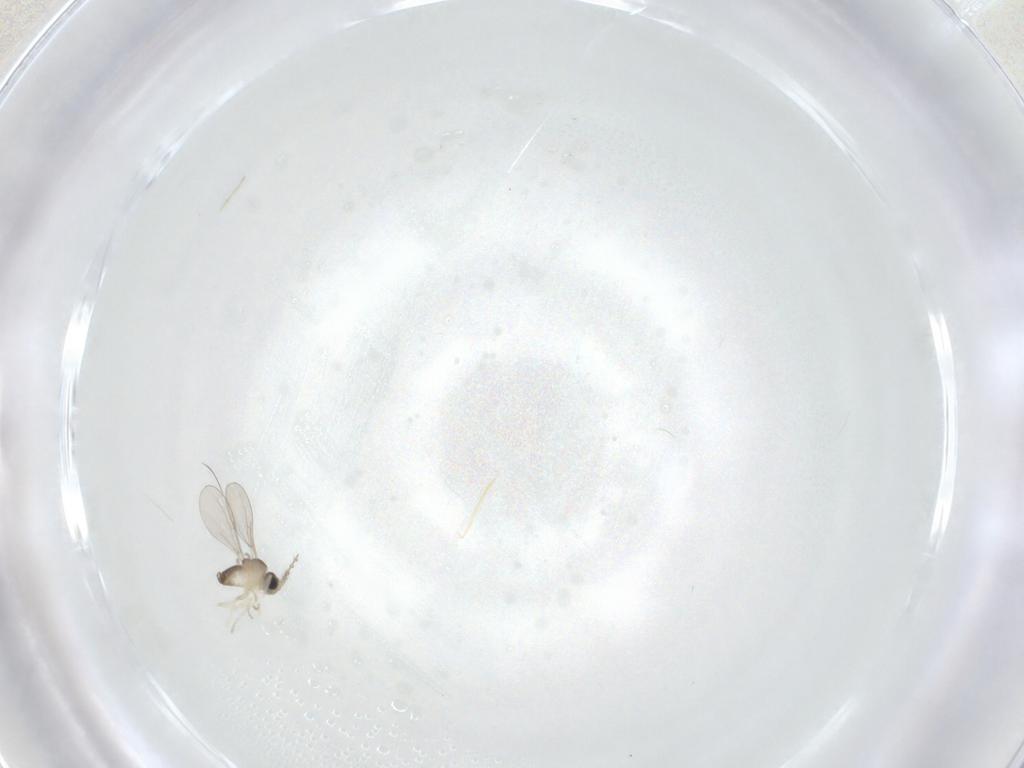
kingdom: Animalia
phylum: Arthropoda
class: Insecta
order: Diptera
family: Cecidomyiidae
